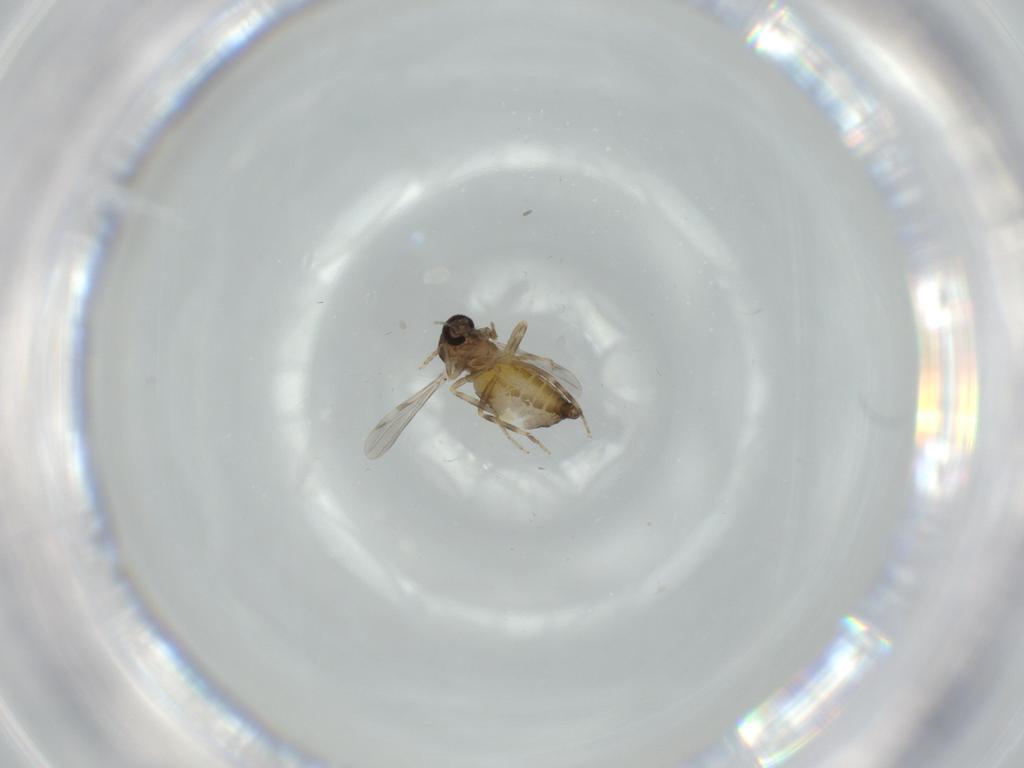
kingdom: Animalia
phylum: Arthropoda
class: Insecta
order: Diptera
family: Ceratopogonidae
